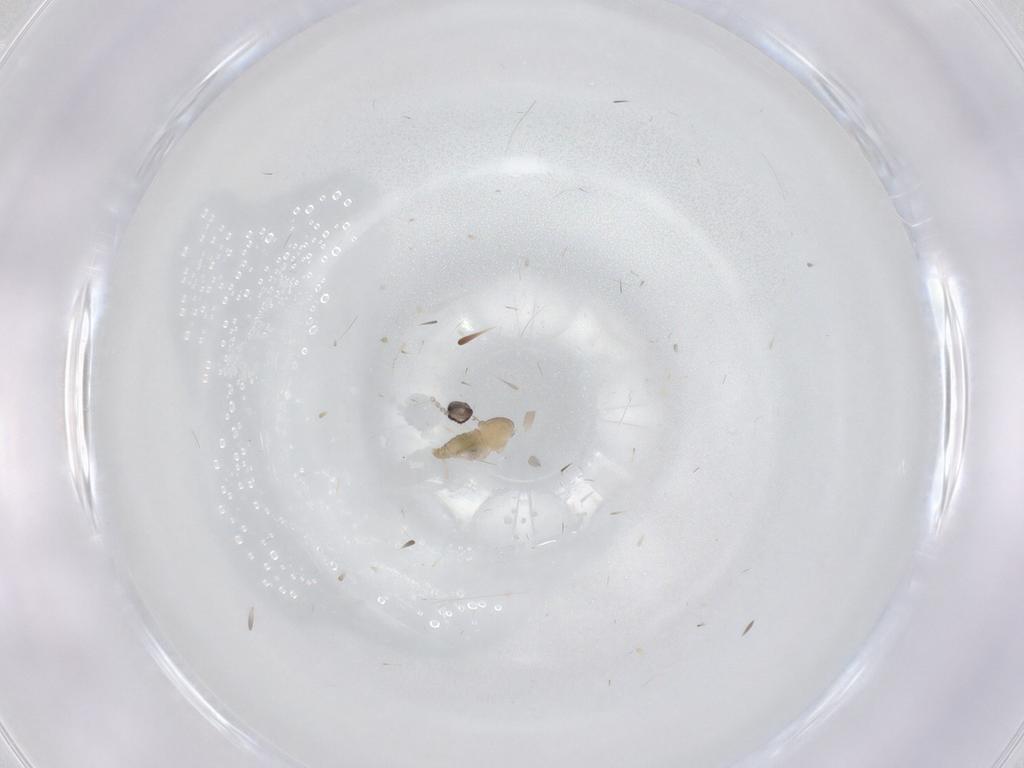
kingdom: Animalia
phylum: Arthropoda
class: Insecta
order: Diptera
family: Cecidomyiidae
